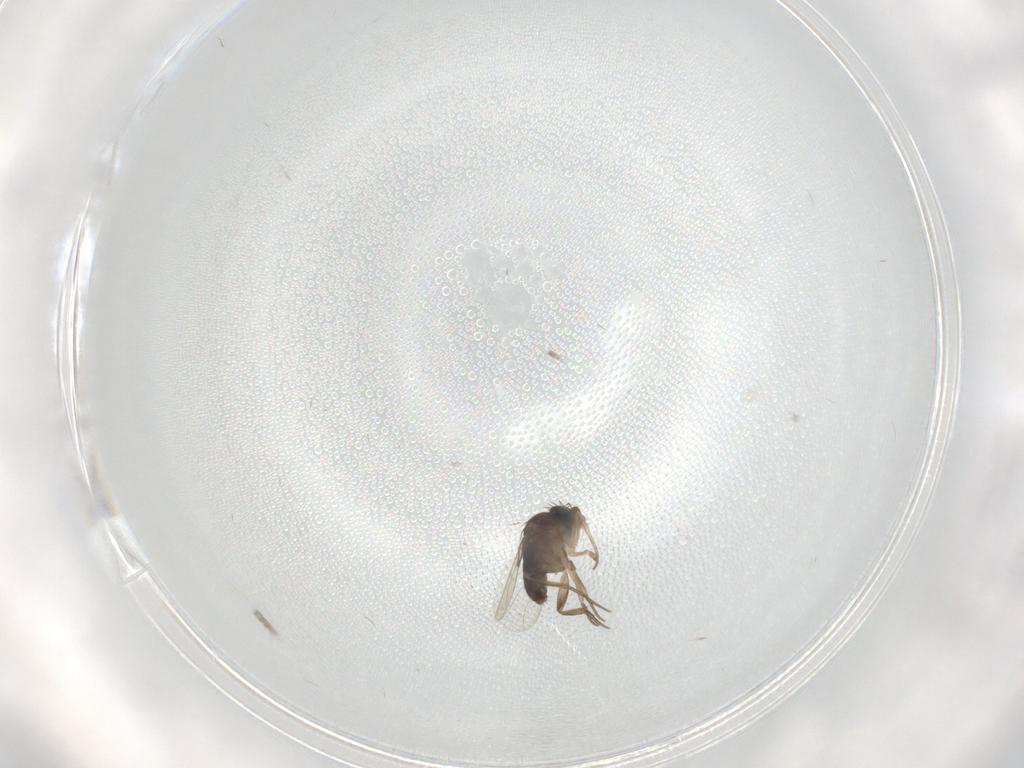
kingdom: Animalia
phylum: Arthropoda
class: Insecta
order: Diptera
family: Phoridae
